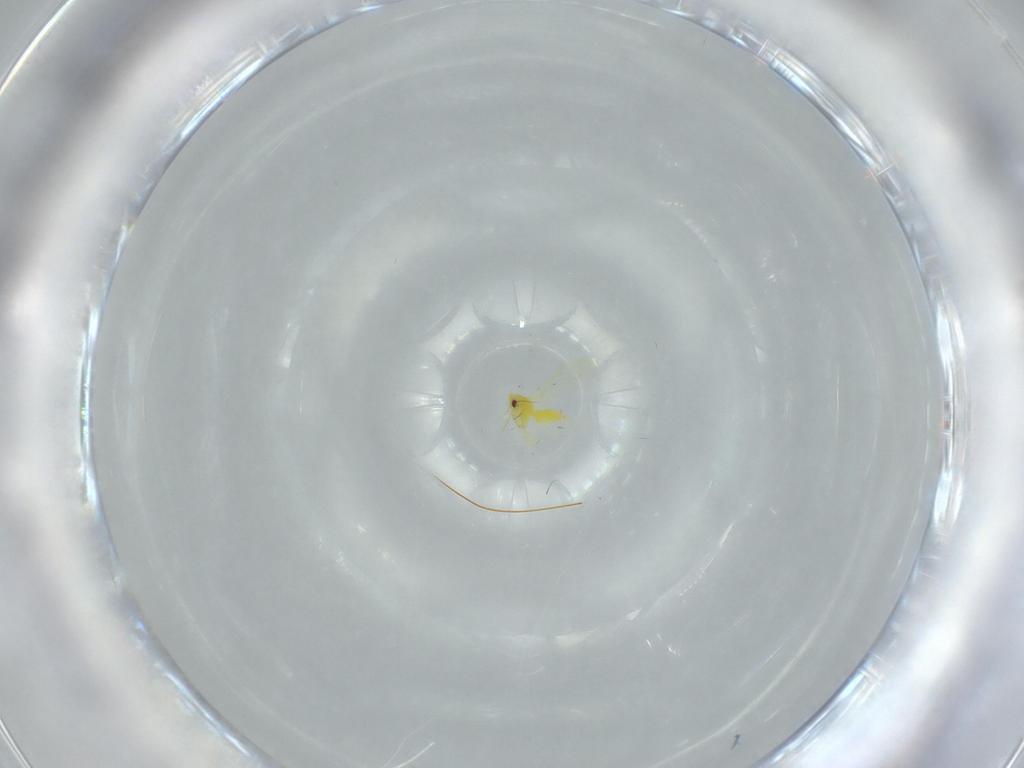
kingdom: Animalia
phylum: Arthropoda
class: Insecta
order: Hemiptera
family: Aleyrodidae
